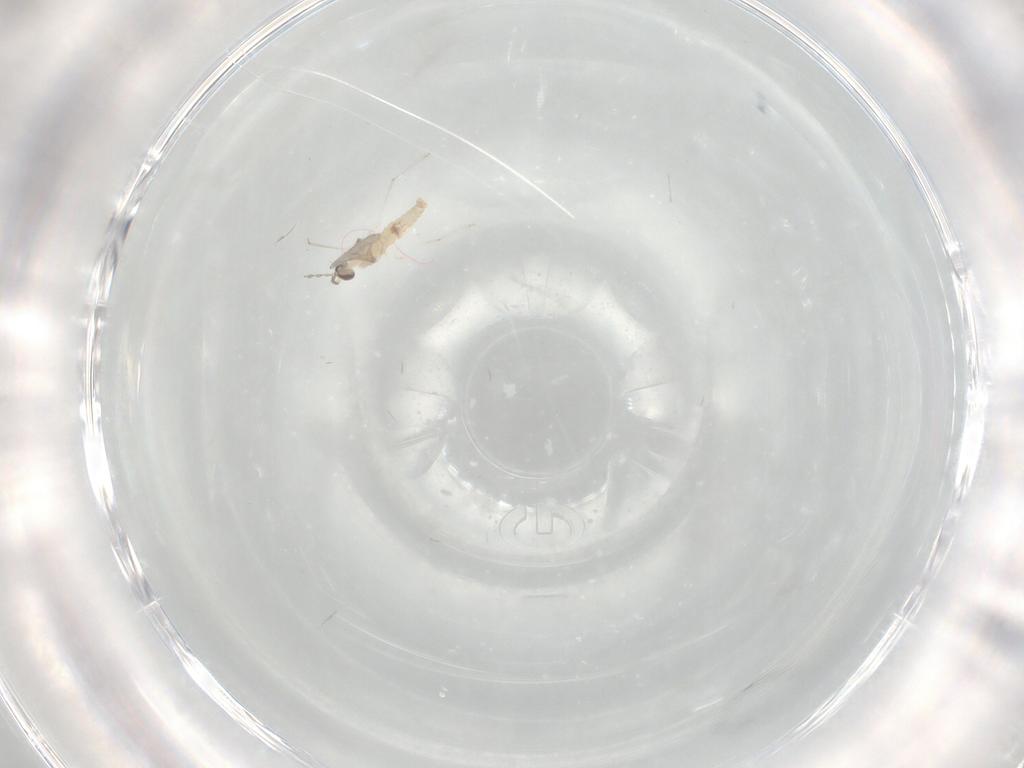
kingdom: Animalia
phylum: Arthropoda
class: Insecta
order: Diptera
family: Cecidomyiidae
